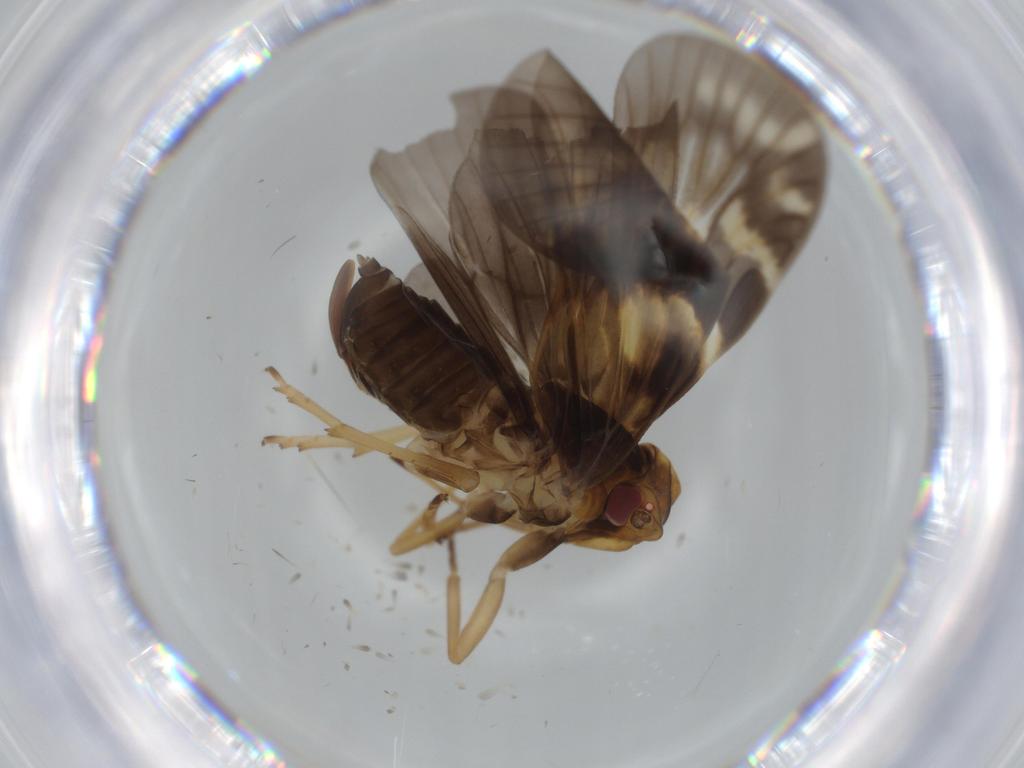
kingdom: Animalia
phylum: Arthropoda
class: Insecta
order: Hemiptera
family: Cixiidae
